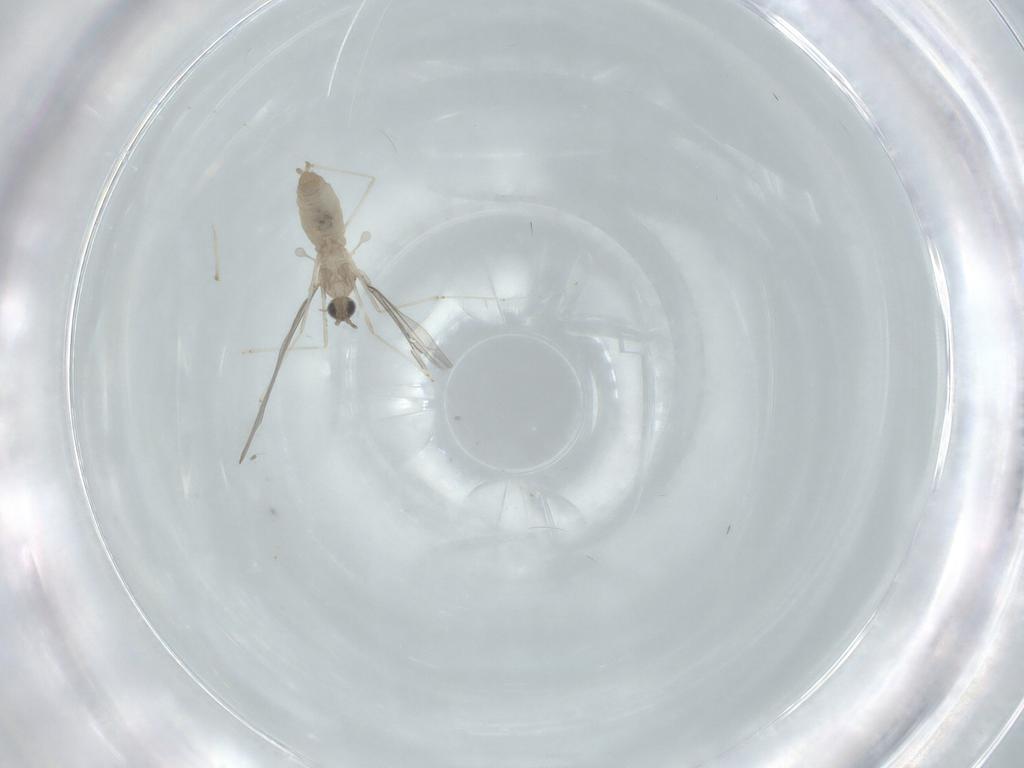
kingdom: Animalia
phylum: Arthropoda
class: Insecta
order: Diptera
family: Cecidomyiidae
